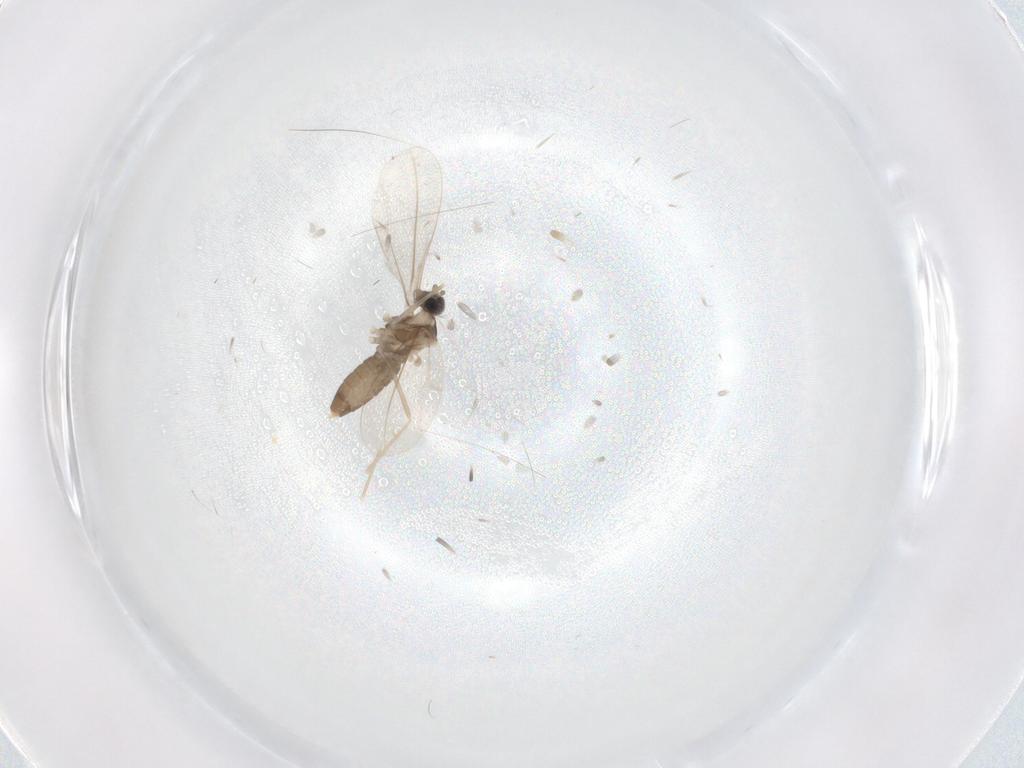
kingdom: Animalia
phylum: Arthropoda
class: Insecta
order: Diptera
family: Cecidomyiidae
